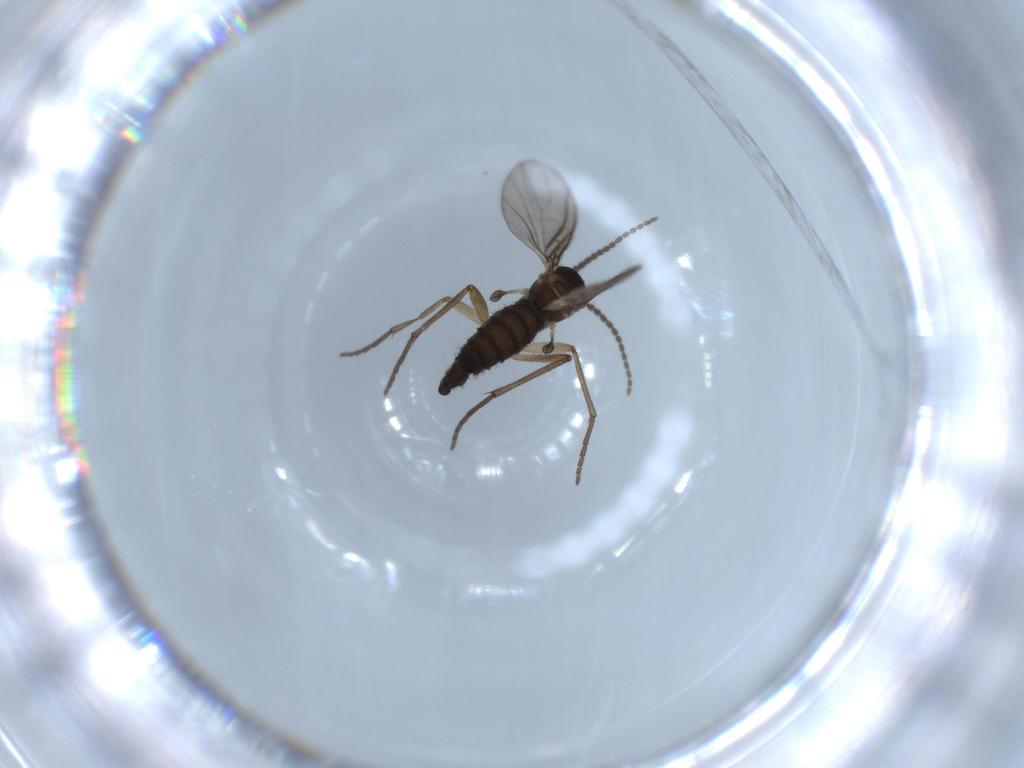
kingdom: Animalia
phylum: Arthropoda
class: Insecta
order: Diptera
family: Sciaridae
